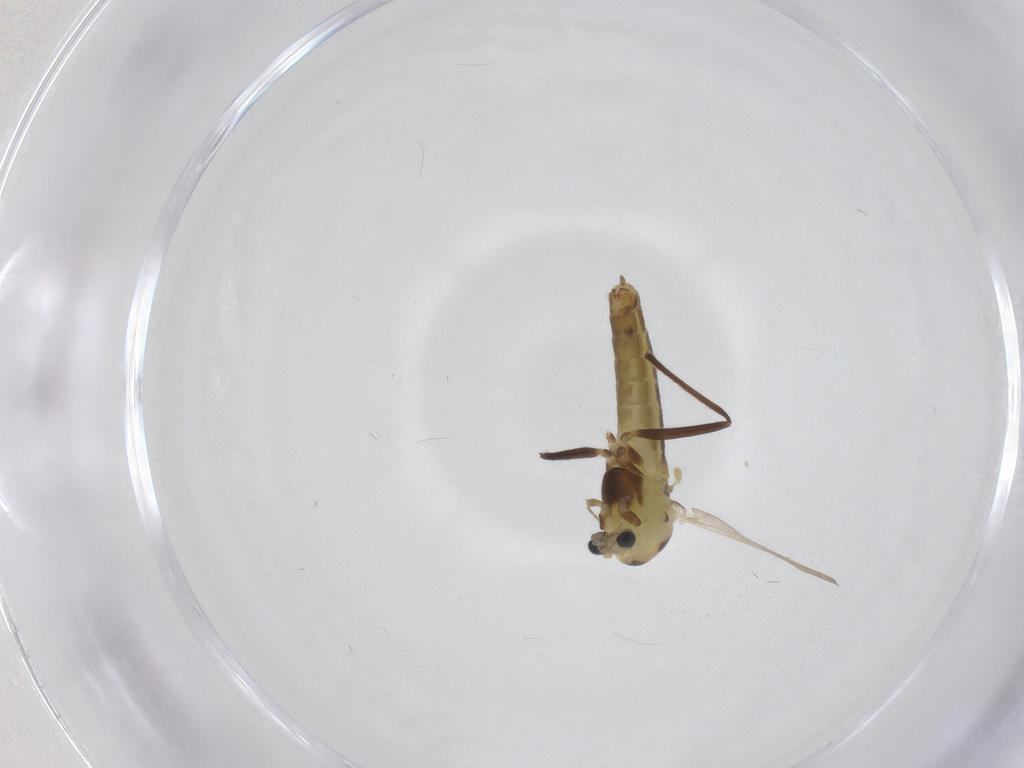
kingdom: Animalia
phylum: Arthropoda
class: Insecta
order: Diptera
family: Chironomidae
